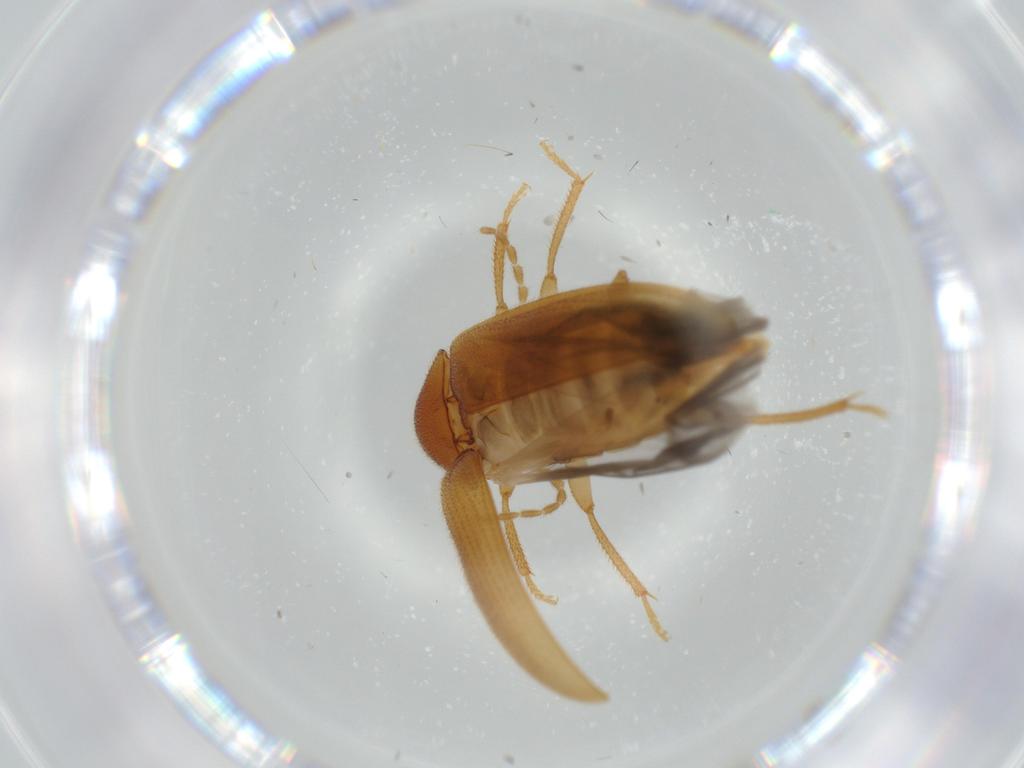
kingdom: Animalia
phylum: Arthropoda
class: Insecta
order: Coleoptera
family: Ptilodactylidae
